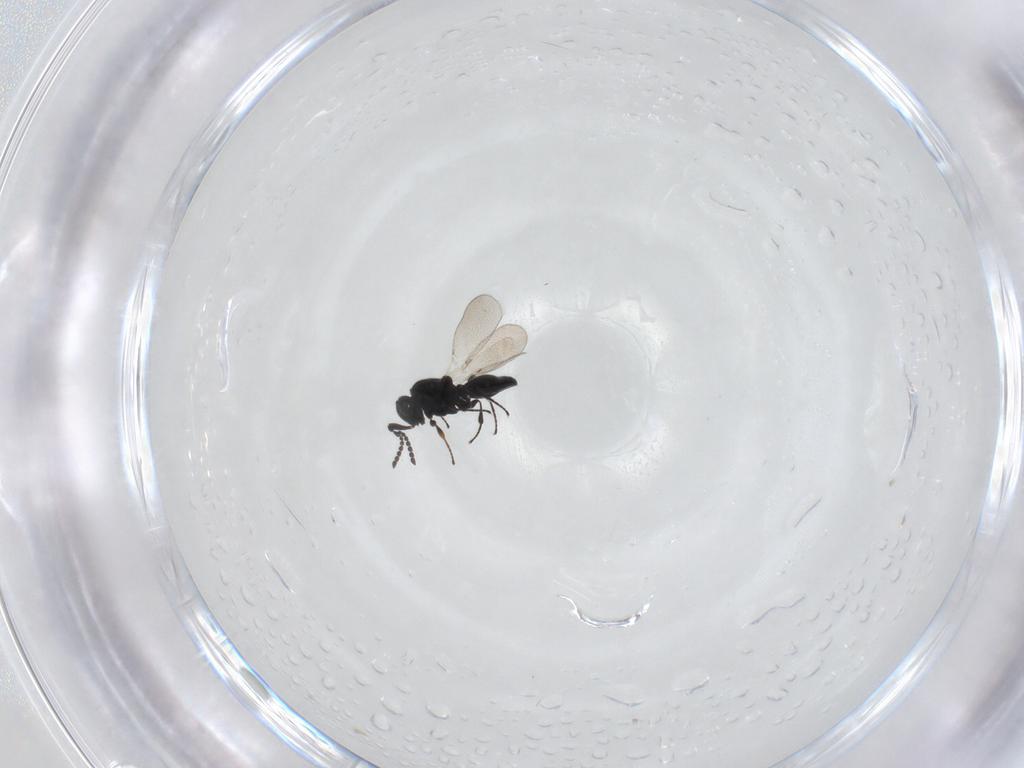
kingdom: Animalia
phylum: Arthropoda
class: Insecta
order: Hymenoptera
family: Platygastridae
